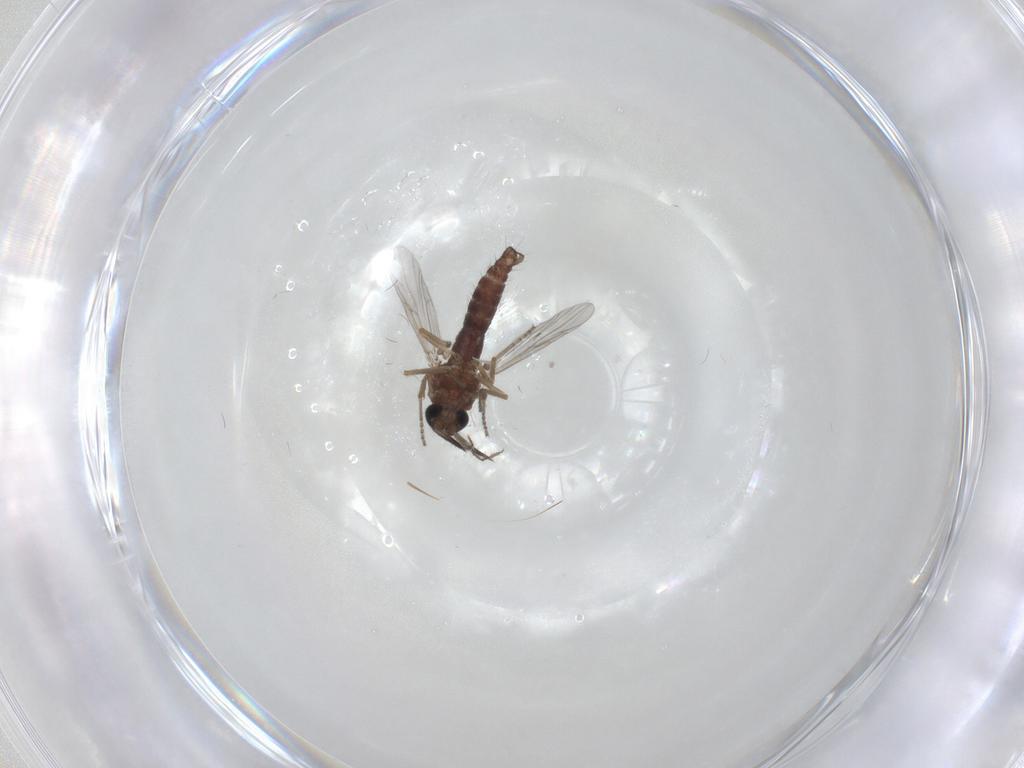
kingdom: Animalia
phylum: Arthropoda
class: Insecta
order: Diptera
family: Ceratopogonidae
